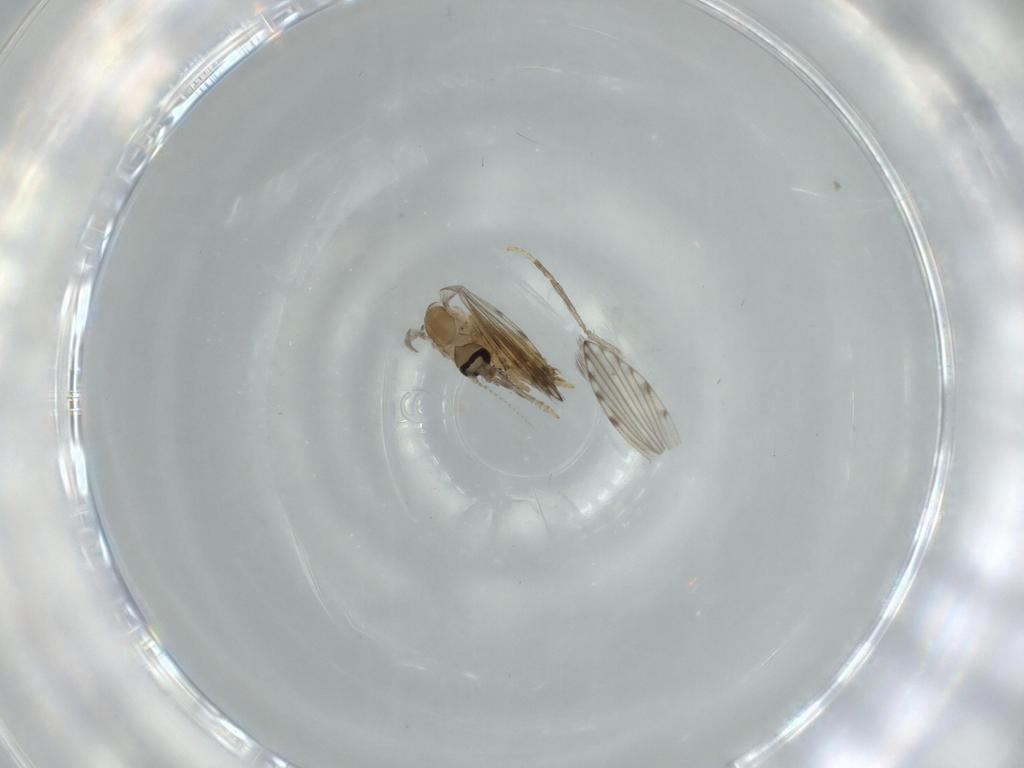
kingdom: Animalia
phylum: Arthropoda
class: Insecta
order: Diptera
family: Psychodidae
